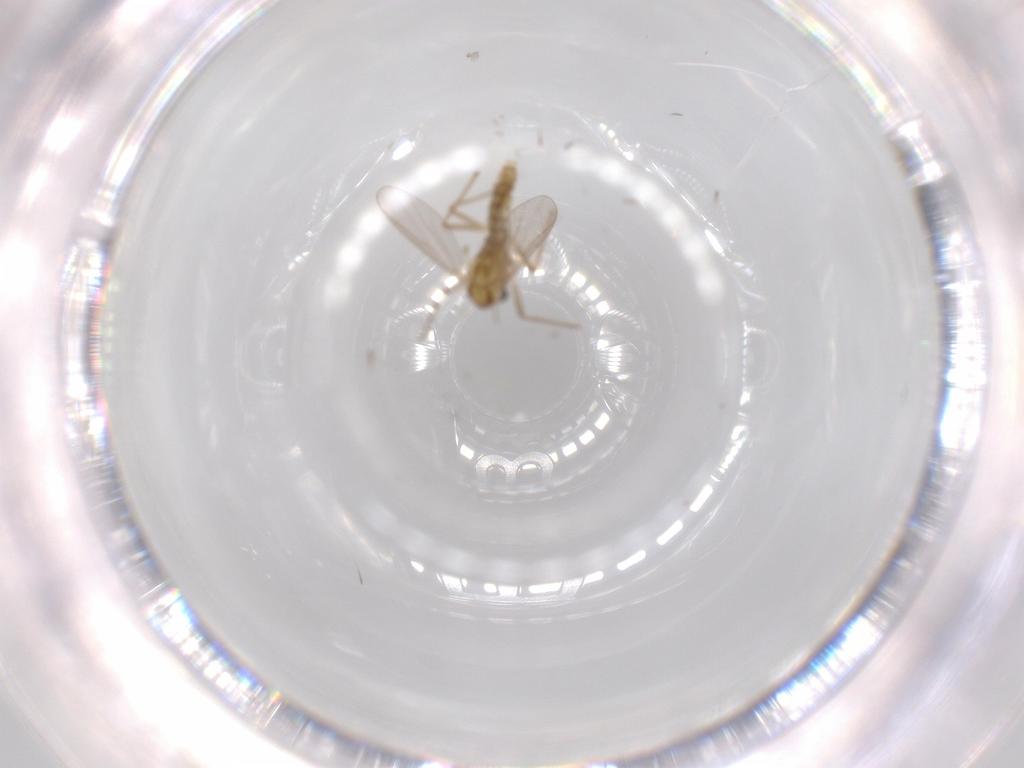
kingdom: Animalia
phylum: Arthropoda
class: Insecta
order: Diptera
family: Chironomidae
